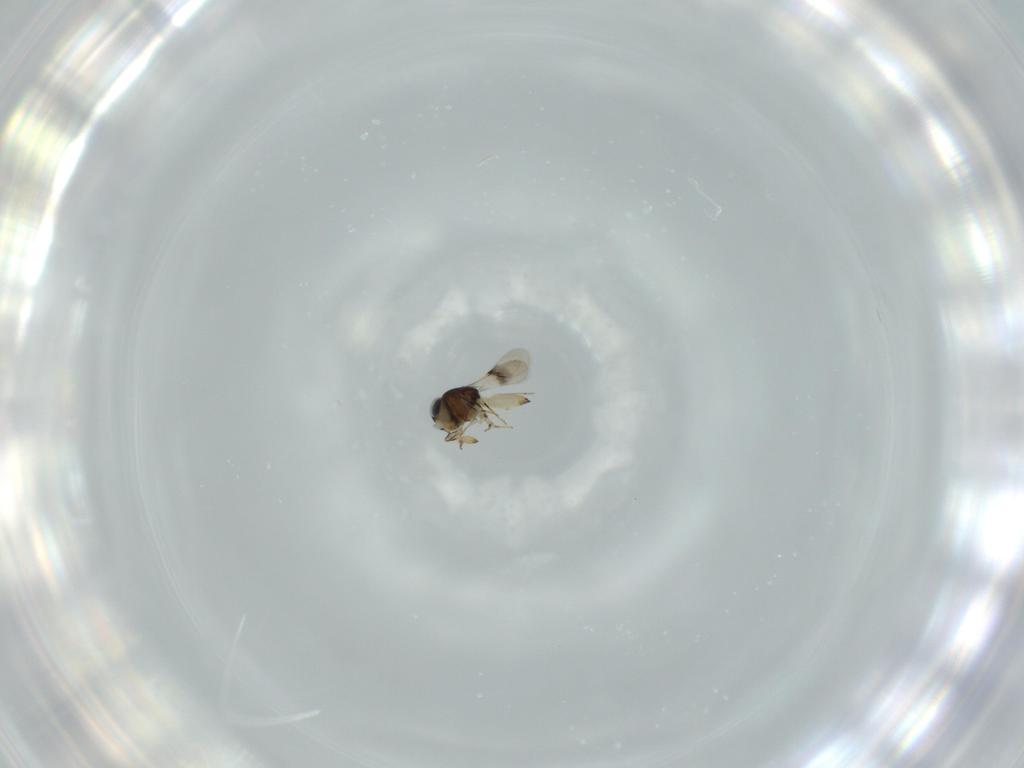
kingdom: Animalia
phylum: Arthropoda
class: Insecta
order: Hymenoptera
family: Scelionidae
